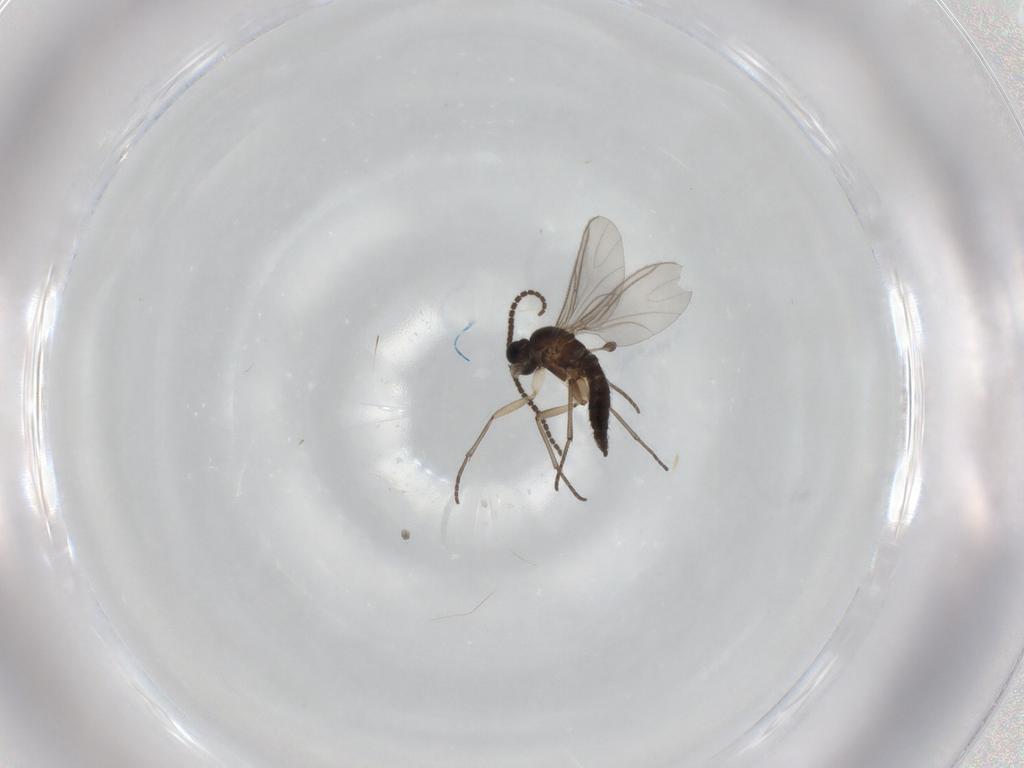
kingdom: Animalia
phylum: Arthropoda
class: Insecta
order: Diptera
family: Sciaridae
